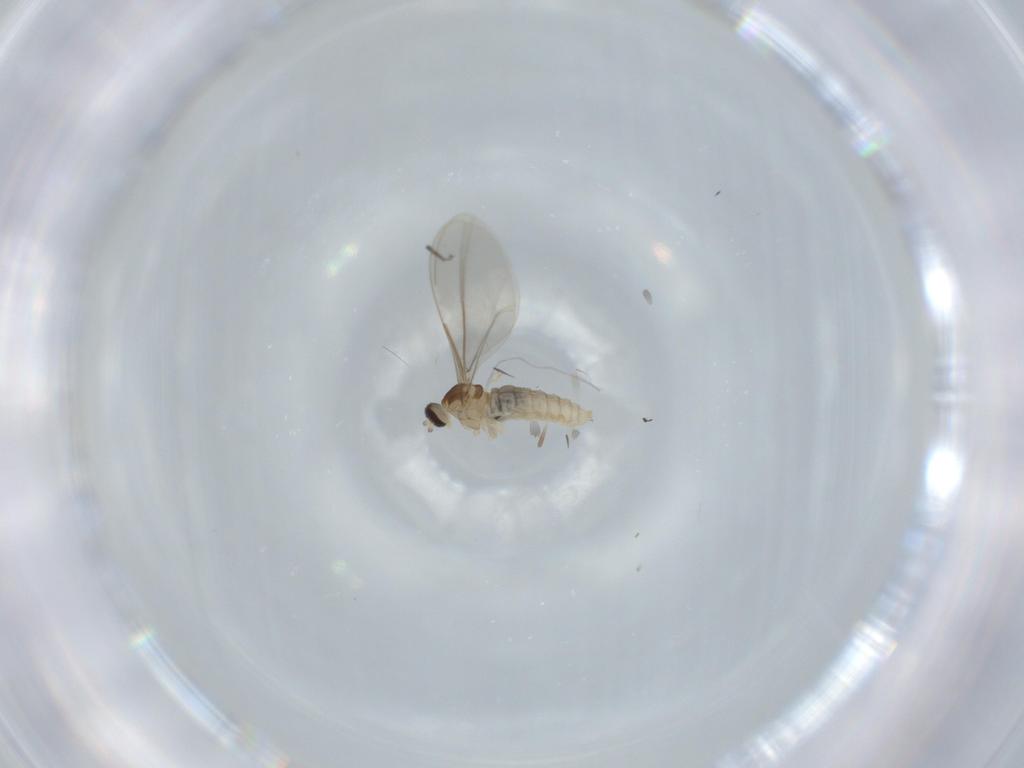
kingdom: Animalia
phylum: Arthropoda
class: Insecta
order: Diptera
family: Cecidomyiidae
